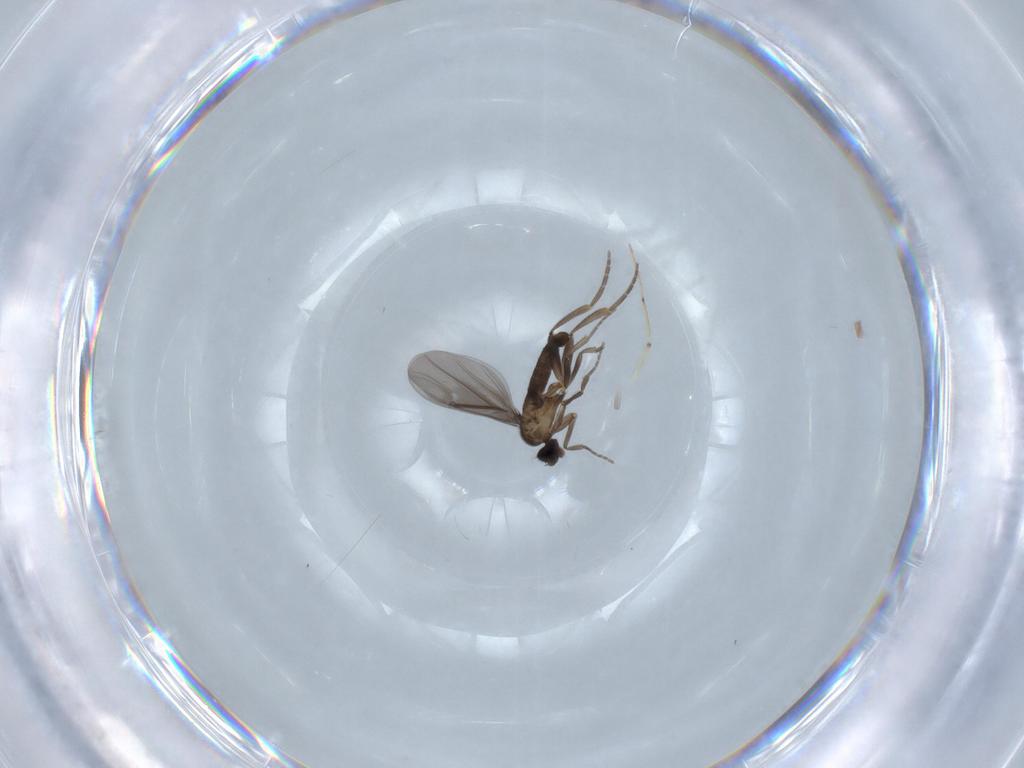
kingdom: Animalia
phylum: Arthropoda
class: Insecta
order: Diptera
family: Phoridae
